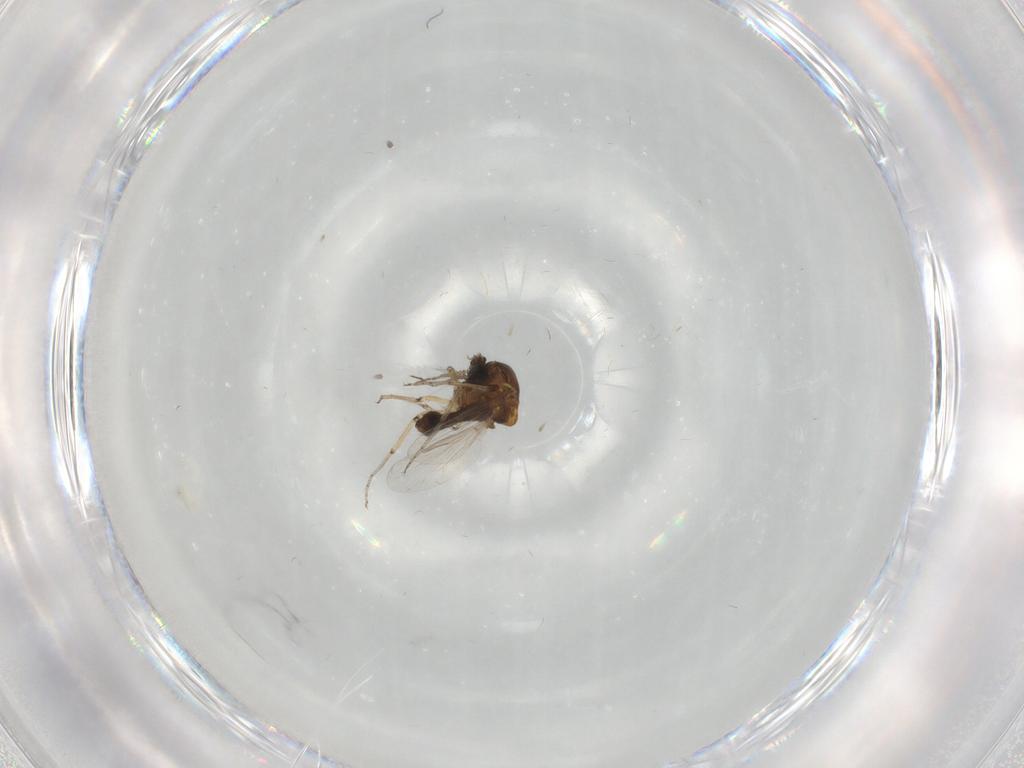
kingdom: Animalia
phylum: Arthropoda
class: Insecta
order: Diptera
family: Ceratopogonidae
